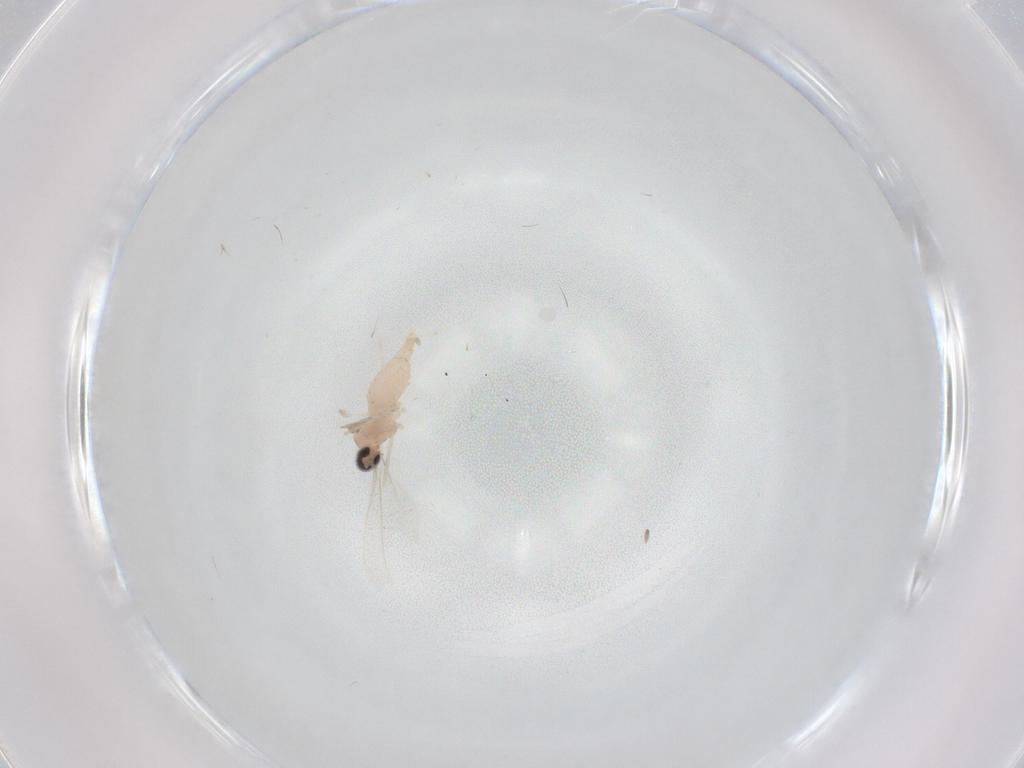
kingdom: Animalia
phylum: Arthropoda
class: Insecta
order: Diptera
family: Cecidomyiidae
